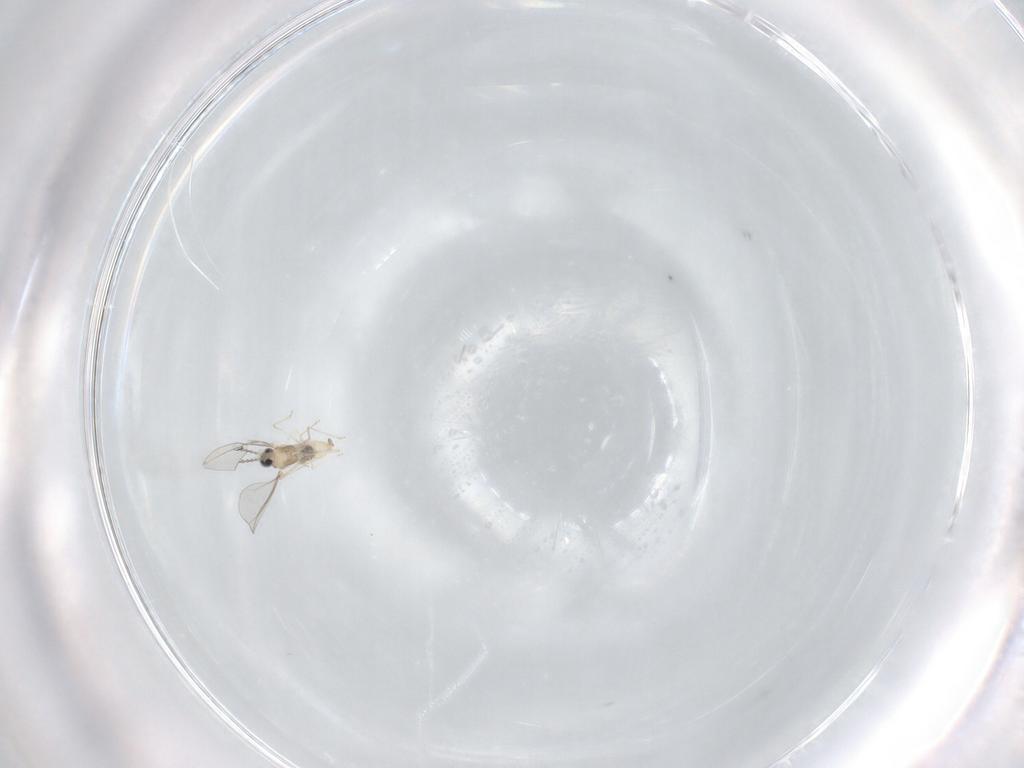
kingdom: Animalia
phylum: Arthropoda
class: Insecta
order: Diptera
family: Cecidomyiidae
